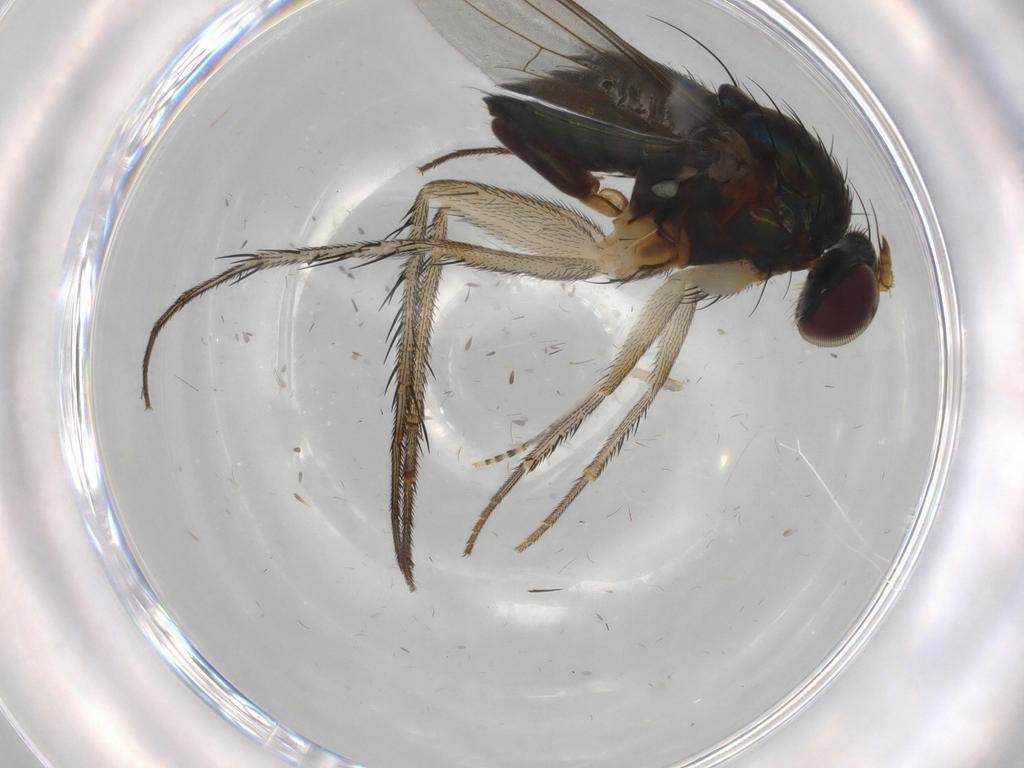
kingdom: Animalia
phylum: Arthropoda
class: Insecta
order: Diptera
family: Dolichopodidae
